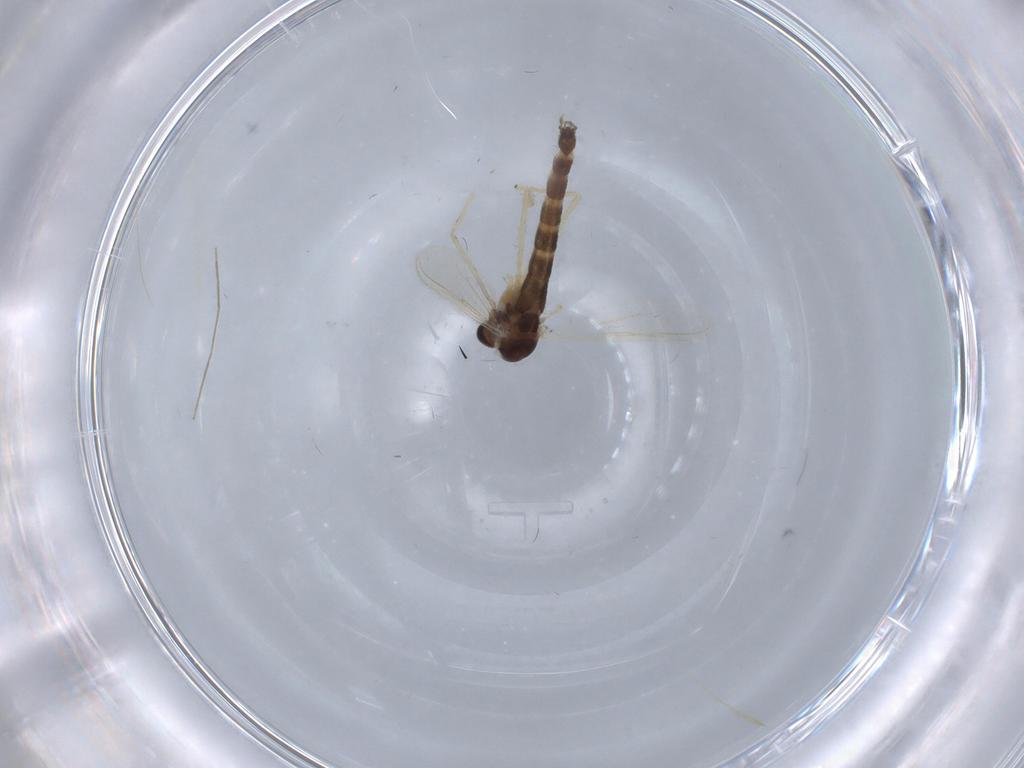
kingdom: Animalia
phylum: Arthropoda
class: Insecta
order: Diptera
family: Chironomidae
